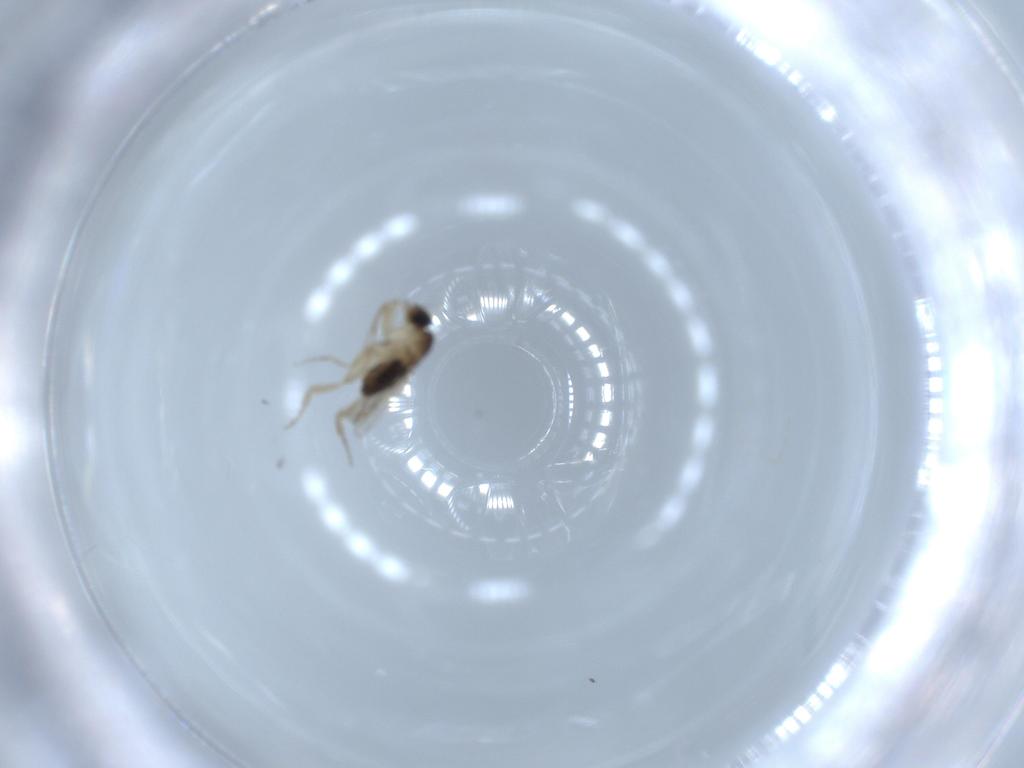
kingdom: Animalia
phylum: Arthropoda
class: Insecta
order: Diptera
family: Phoridae
